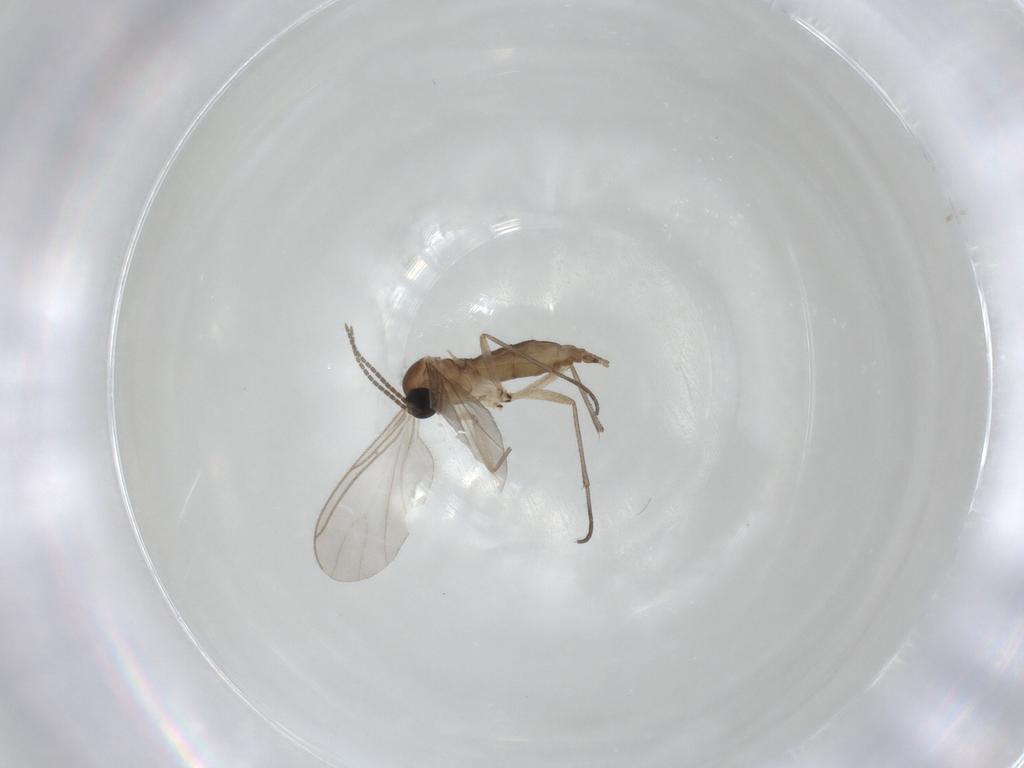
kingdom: Animalia
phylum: Arthropoda
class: Insecta
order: Diptera
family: Sciaridae
